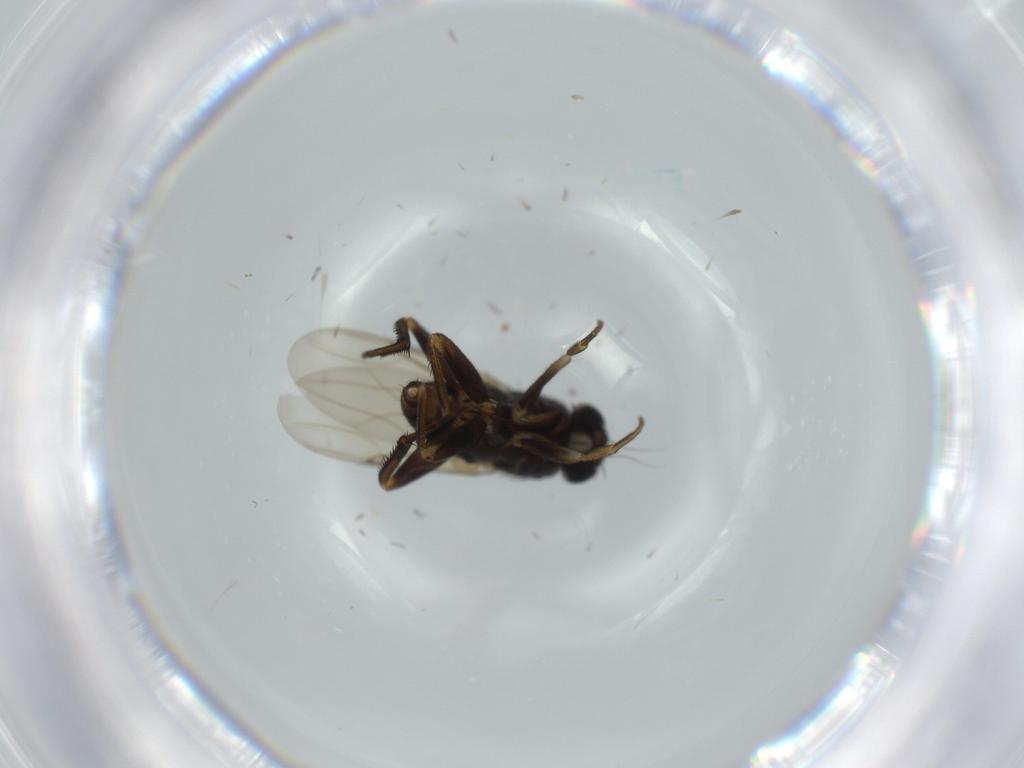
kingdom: Animalia
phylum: Arthropoda
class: Insecta
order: Diptera
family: Phoridae
